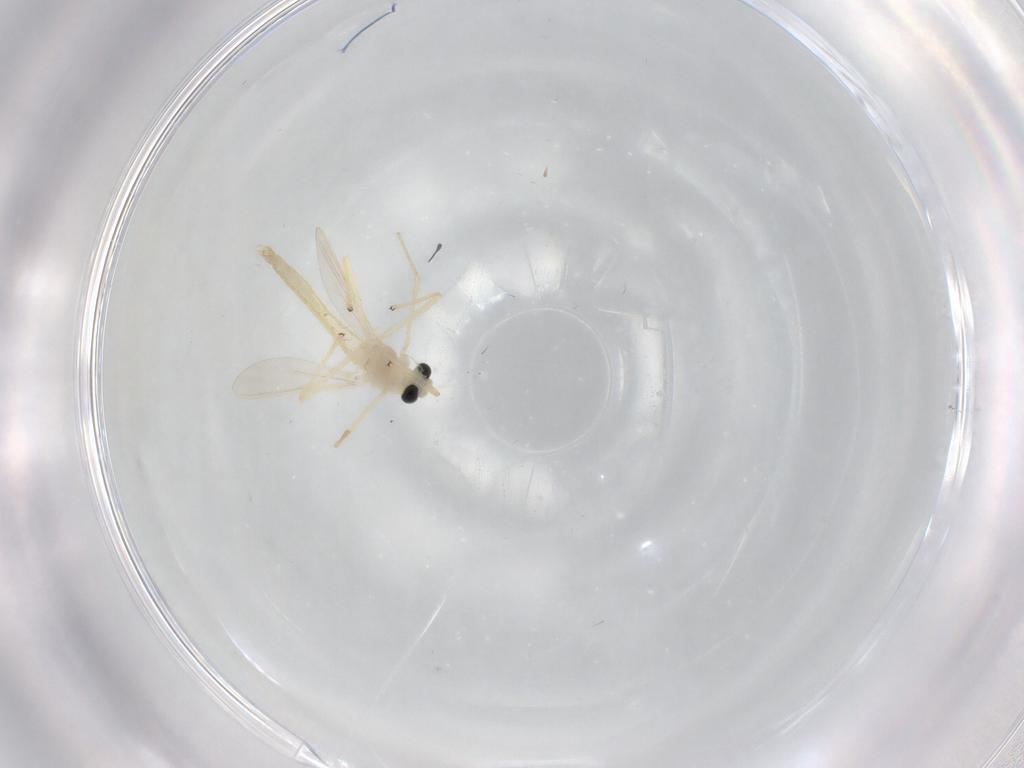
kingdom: Animalia
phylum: Arthropoda
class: Insecta
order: Diptera
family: Chironomidae
